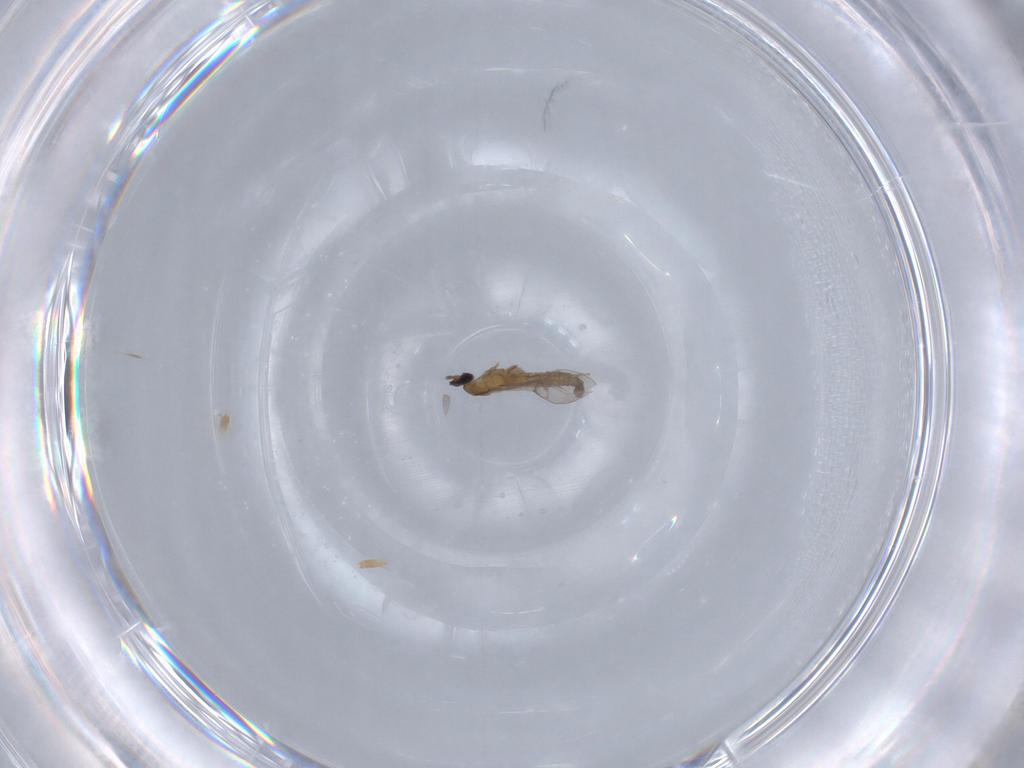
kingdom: Animalia
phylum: Arthropoda
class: Insecta
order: Diptera
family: Cecidomyiidae
